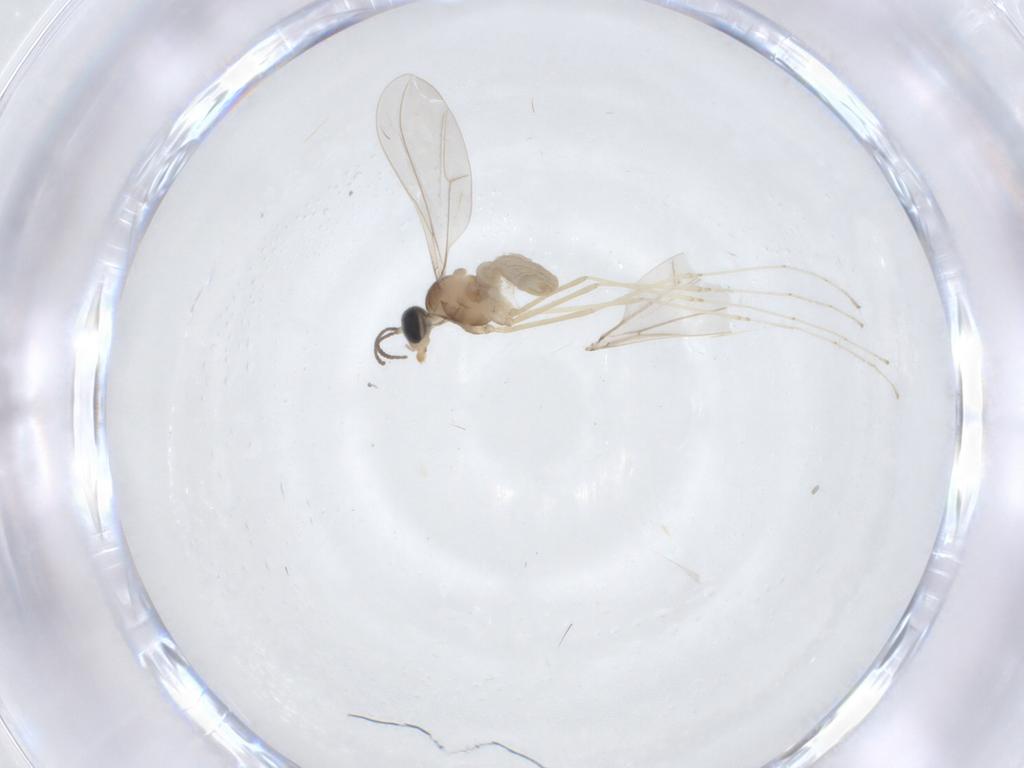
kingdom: Animalia
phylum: Arthropoda
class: Insecta
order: Diptera
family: Cecidomyiidae
